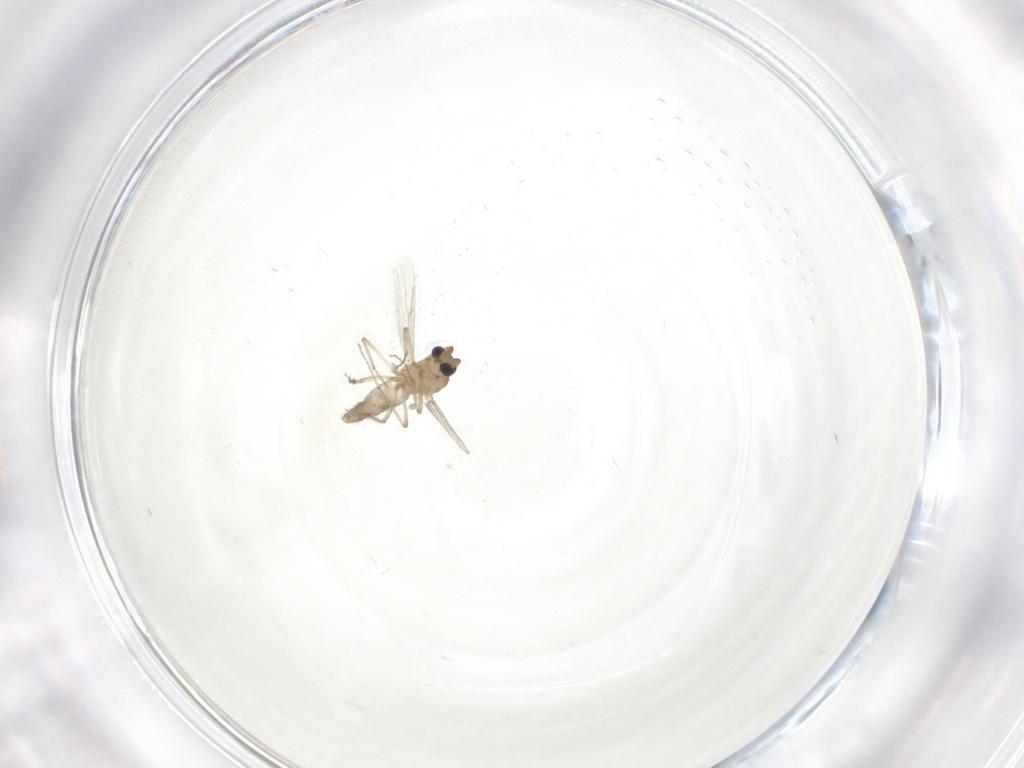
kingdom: Animalia
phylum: Arthropoda
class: Insecta
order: Diptera
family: Ceratopogonidae
